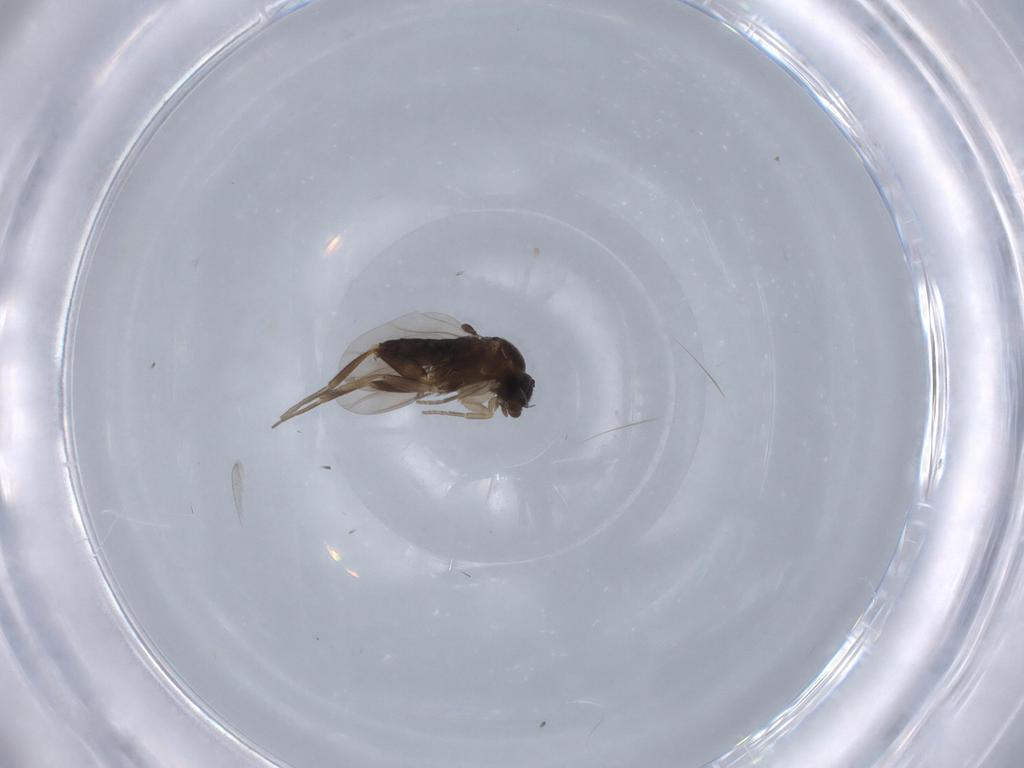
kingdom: Animalia
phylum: Arthropoda
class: Insecta
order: Diptera
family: Phoridae
